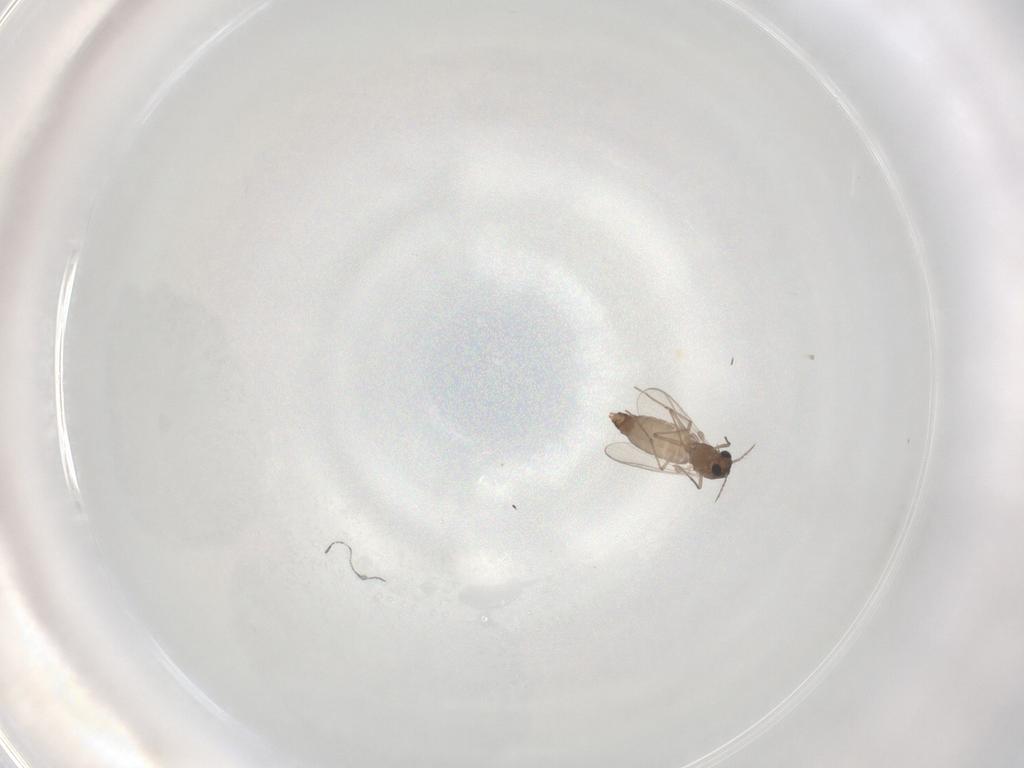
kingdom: Animalia
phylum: Arthropoda
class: Insecta
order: Diptera
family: Chironomidae
